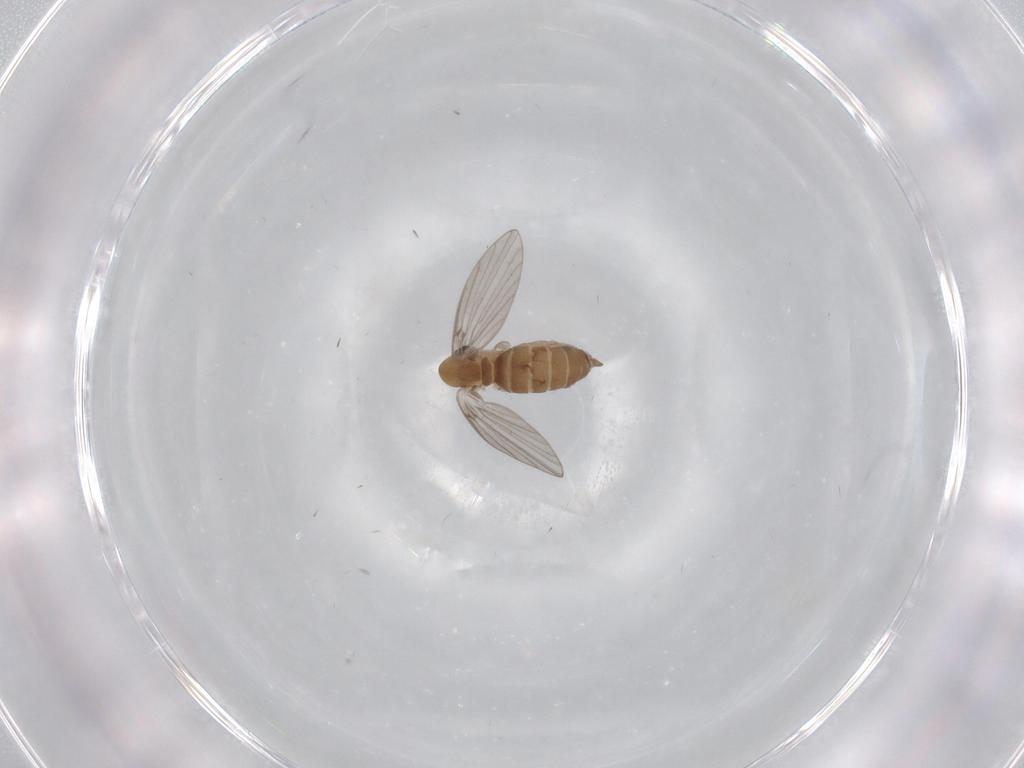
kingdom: Animalia
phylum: Arthropoda
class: Insecta
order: Diptera
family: Psychodidae
